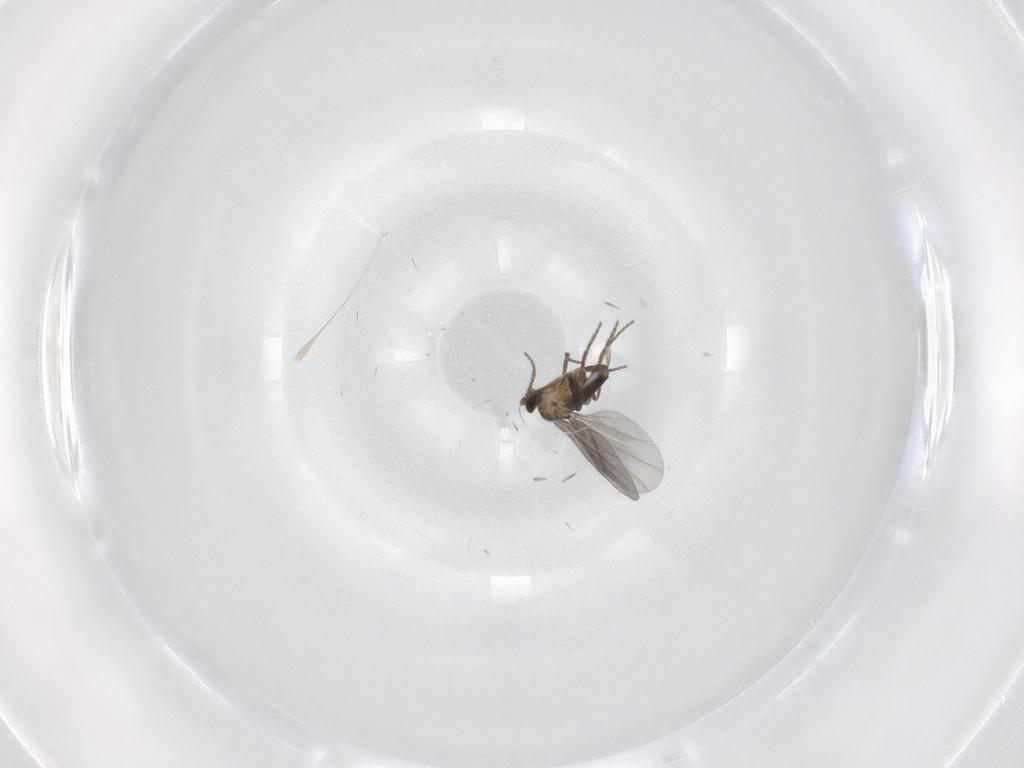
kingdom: Animalia
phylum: Arthropoda
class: Insecta
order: Diptera
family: Phoridae
